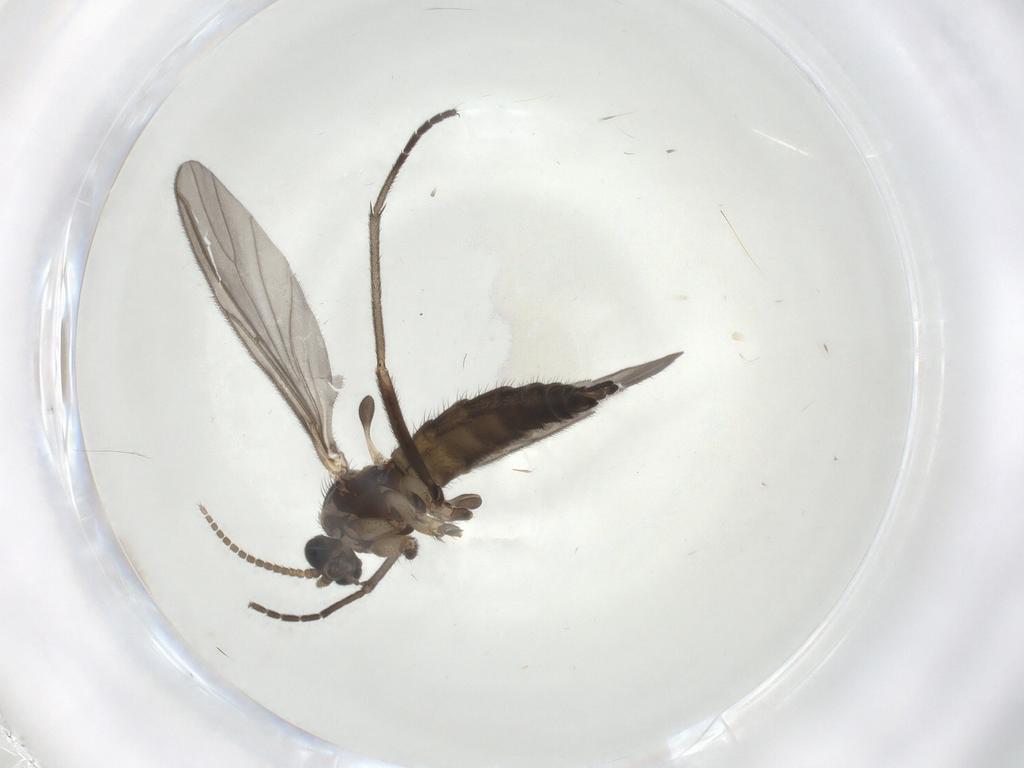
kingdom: Animalia
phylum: Arthropoda
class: Insecta
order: Diptera
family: Sciaridae
